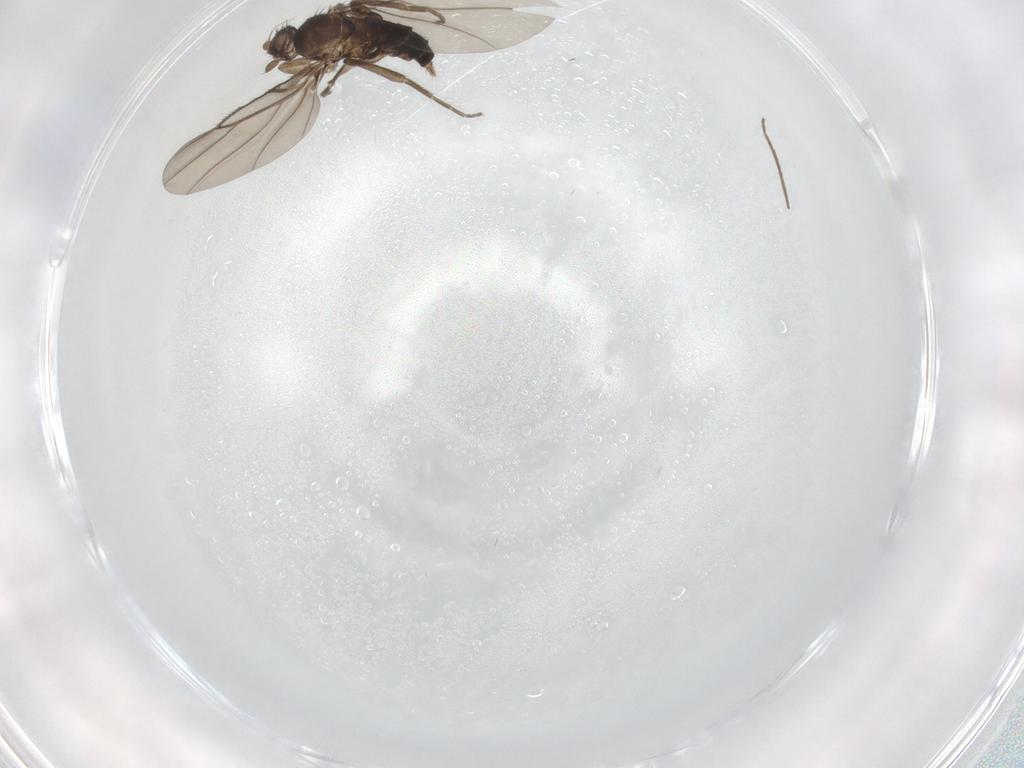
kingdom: Animalia
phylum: Arthropoda
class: Insecta
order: Diptera
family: Chironomidae
